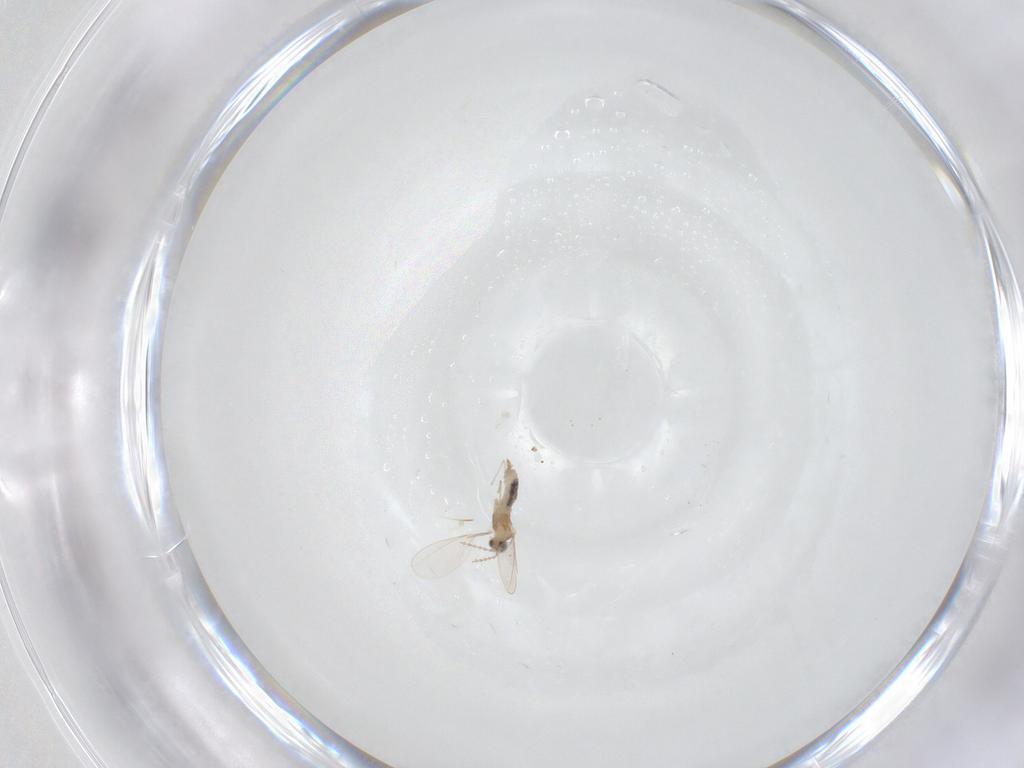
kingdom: Animalia
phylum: Arthropoda
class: Insecta
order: Diptera
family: Cecidomyiidae
